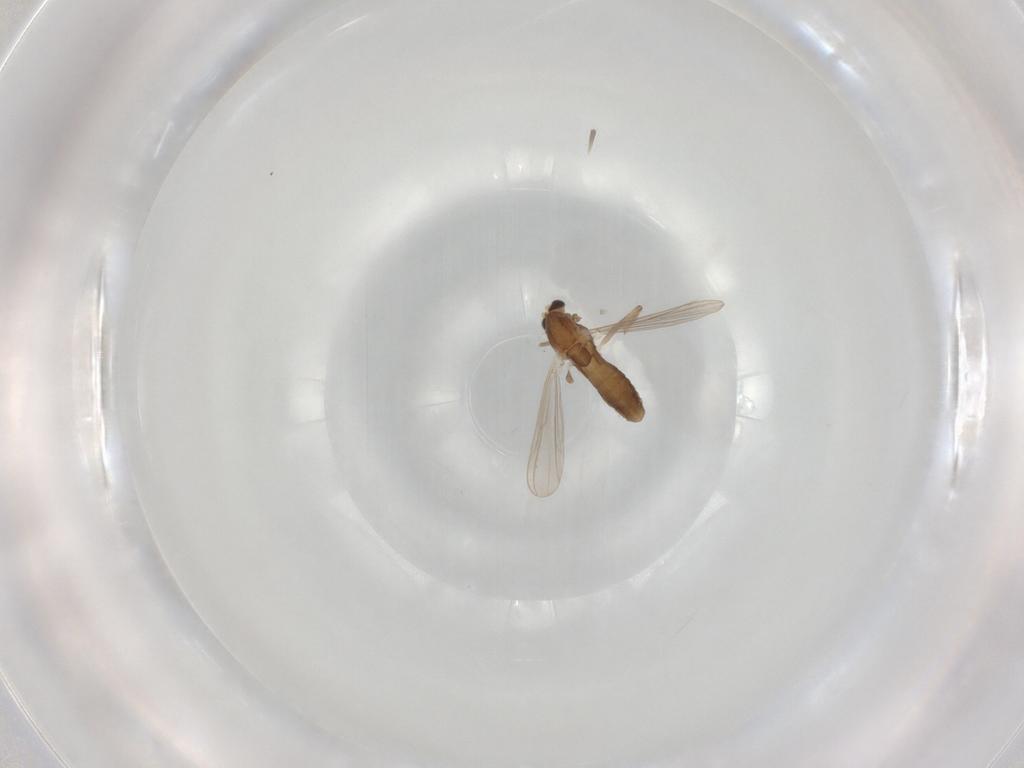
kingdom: Animalia
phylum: Arthropoda
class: Insecta
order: Diptera
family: Chironomidae
